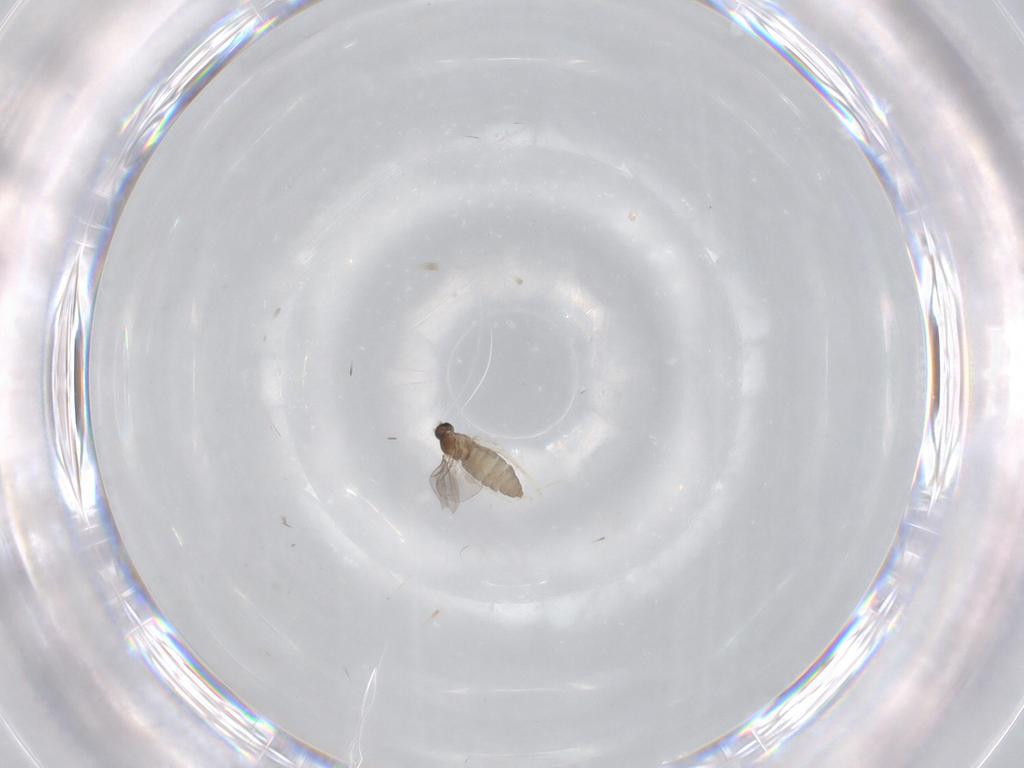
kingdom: Animalia
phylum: Arthropoda
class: Insecta
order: Diptera
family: Cecidomyiidae
